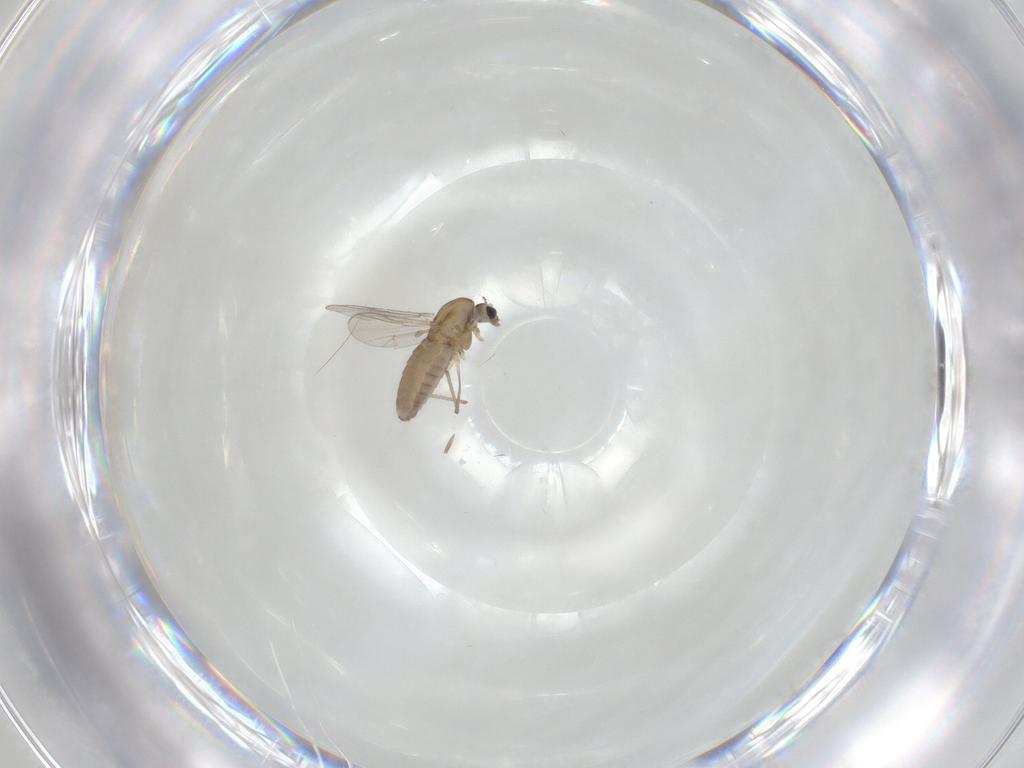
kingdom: Animalia
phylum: Arthropoda
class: Insecta
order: Diptera
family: Chironomidae
